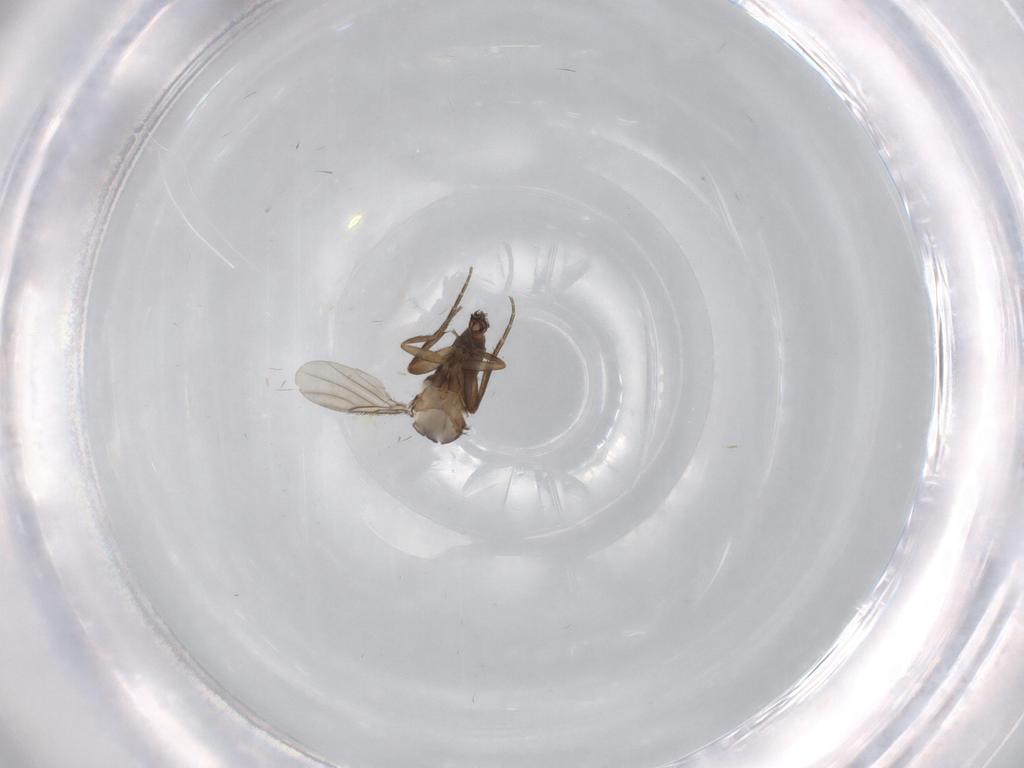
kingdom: Animalia
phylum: Arthropoda
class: Insecta
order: Diptera
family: Phoridae
